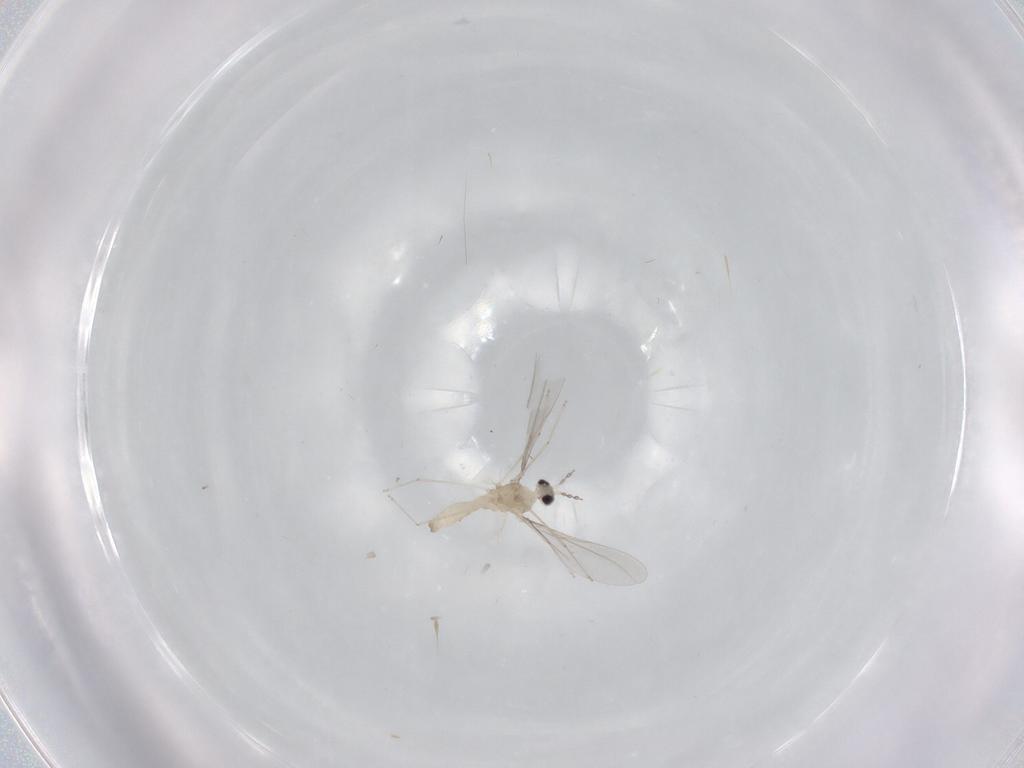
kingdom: Animalia
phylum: Arthropoda
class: Insecta
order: Diptera
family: Cecidomyiidae
